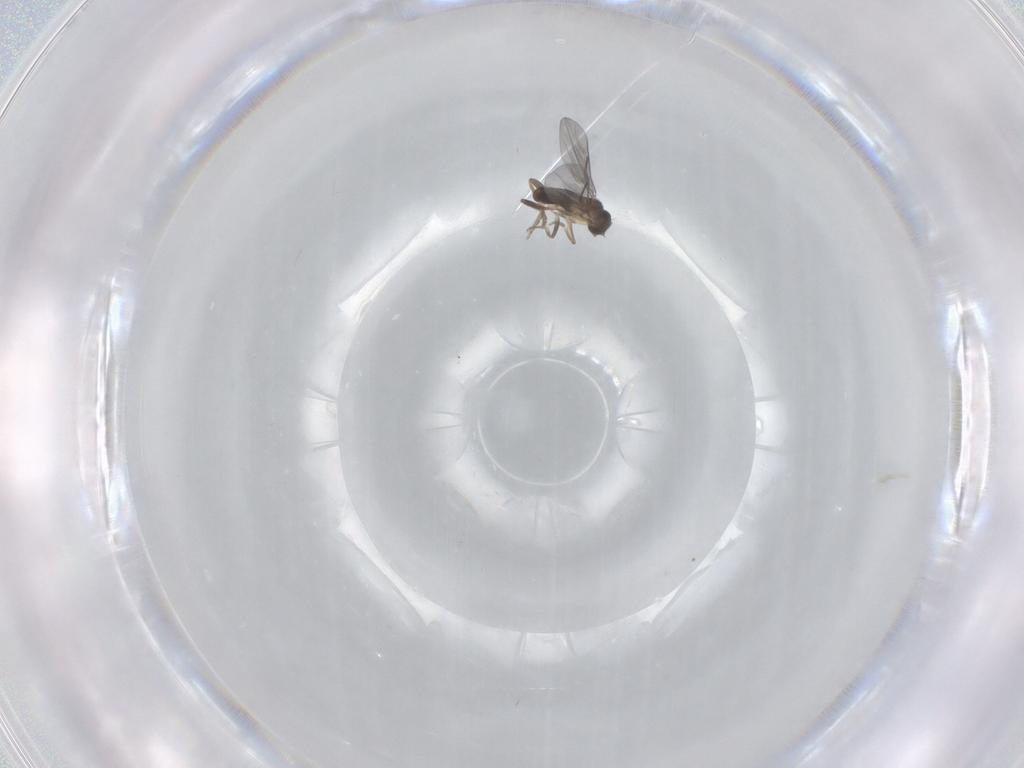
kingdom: Animalia
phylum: Arthropoda
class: Insecta
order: Diptera
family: Phoridae
